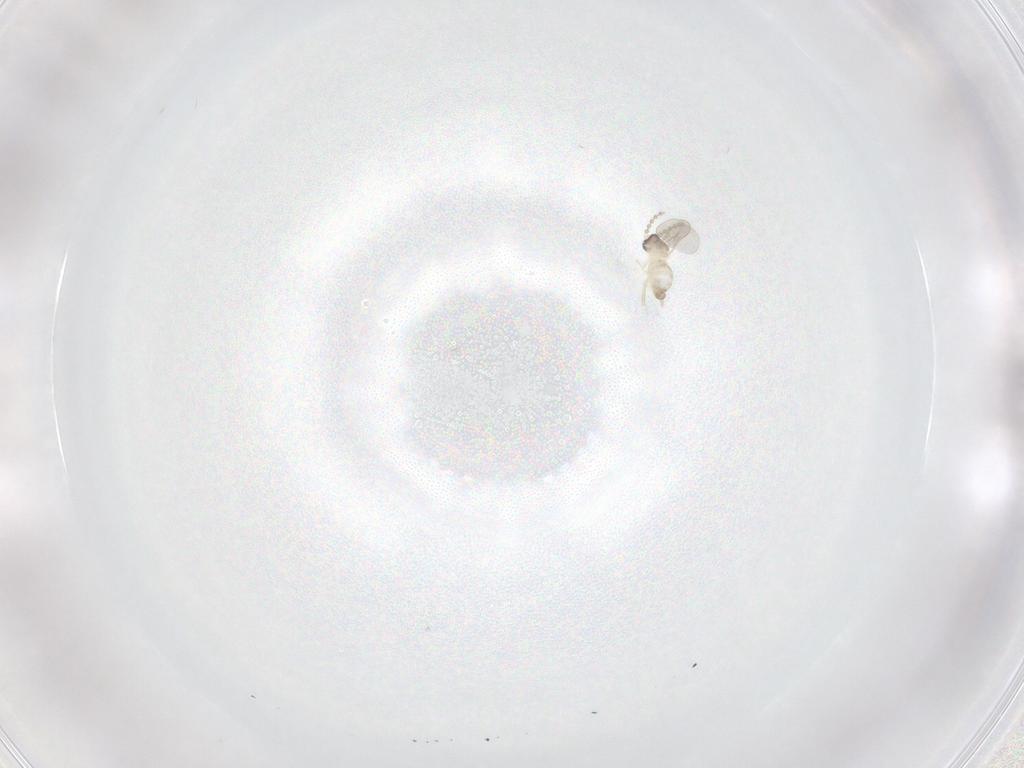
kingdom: Animalia
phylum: Arthropoda
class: Insecta
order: Diptera
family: Cecidomyiidae
